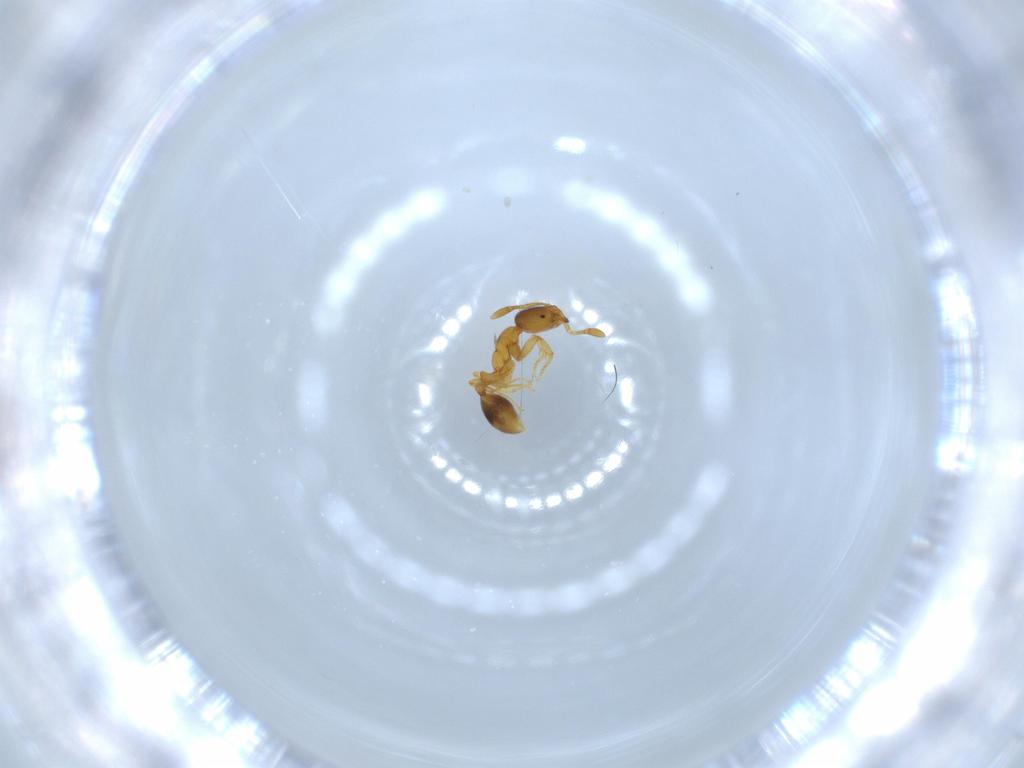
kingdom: Animalia
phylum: Arthropoda
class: Insecta
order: Hymenoptera
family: Formicidae
